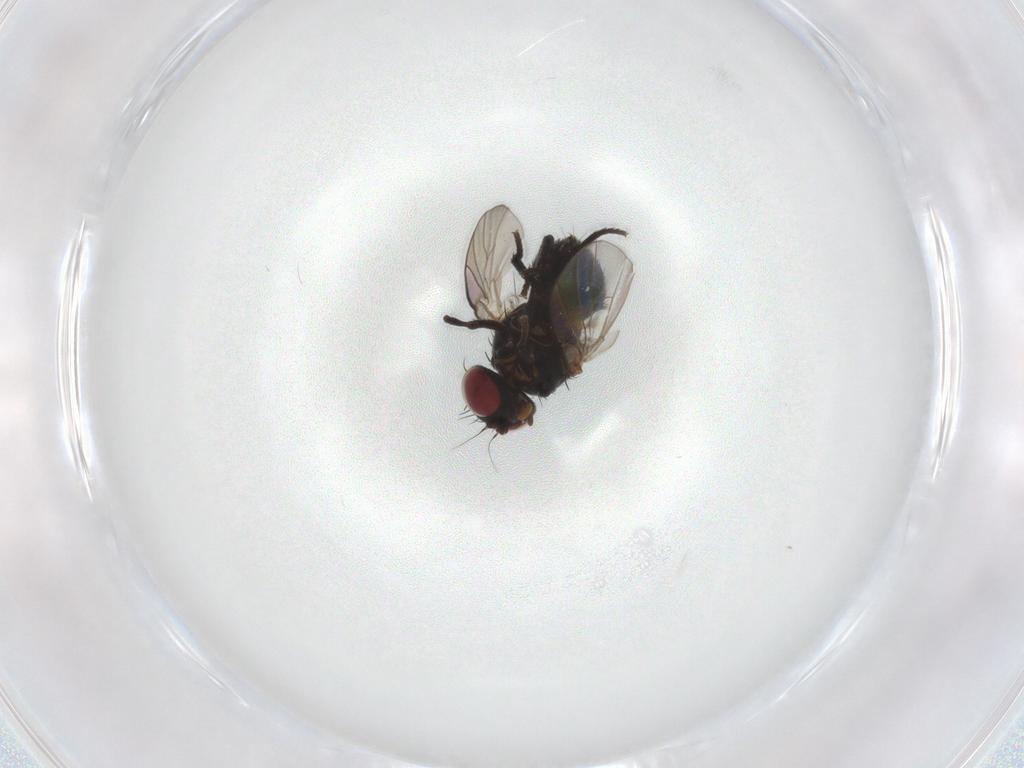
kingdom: Animalia
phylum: Arthropoda
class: Insecta
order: Diptera
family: Agromyzidae
